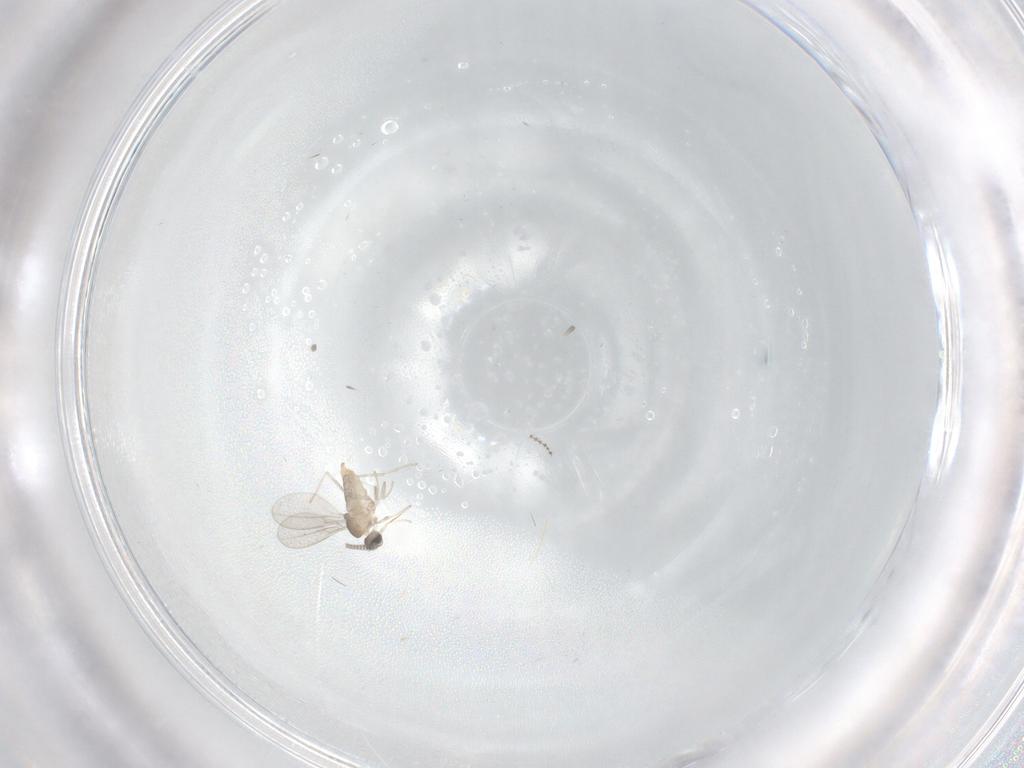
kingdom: Animalia
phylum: Arthropoda
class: Insecta
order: Diptera
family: Cecidomyiidae
